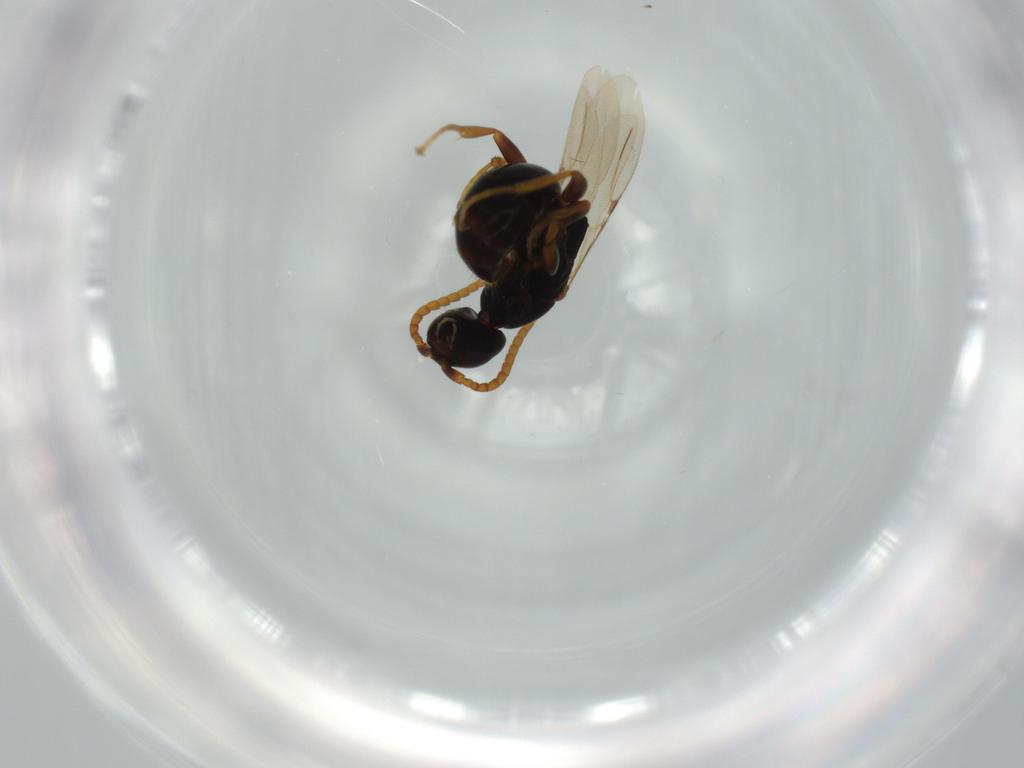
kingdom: Animalia
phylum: Arthropoda
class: Insecta
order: Hymenoptera
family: Bethylidae
